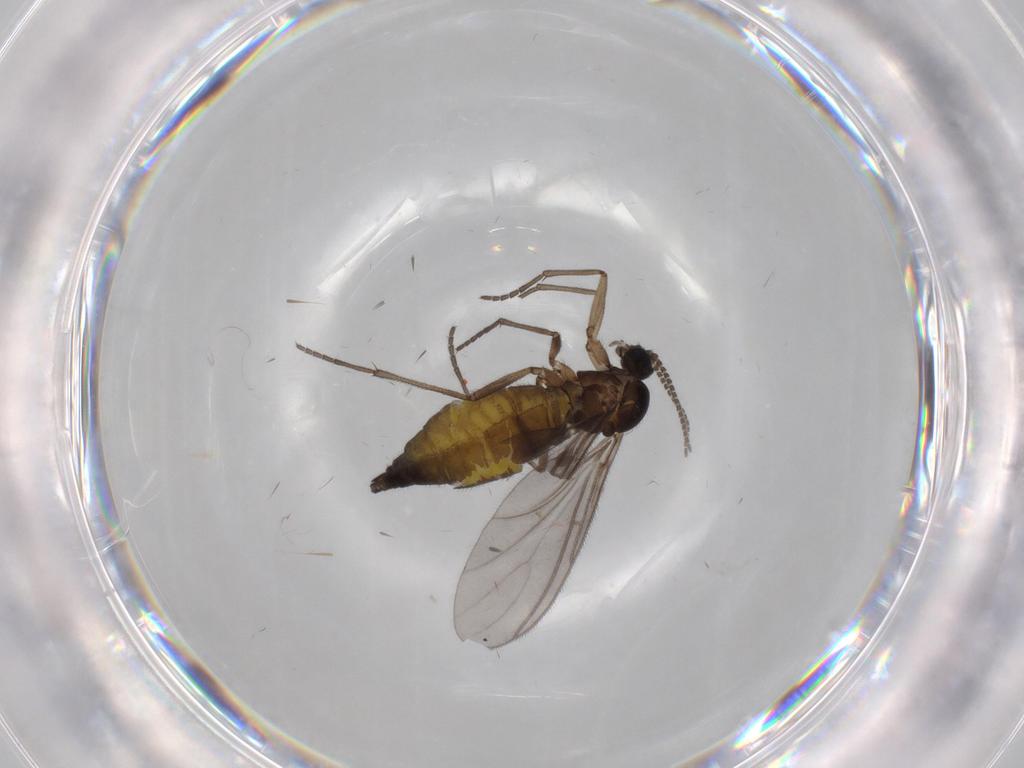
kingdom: Animalia
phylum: Arthropoda
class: Insecta
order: Diptera
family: Sciaridae
